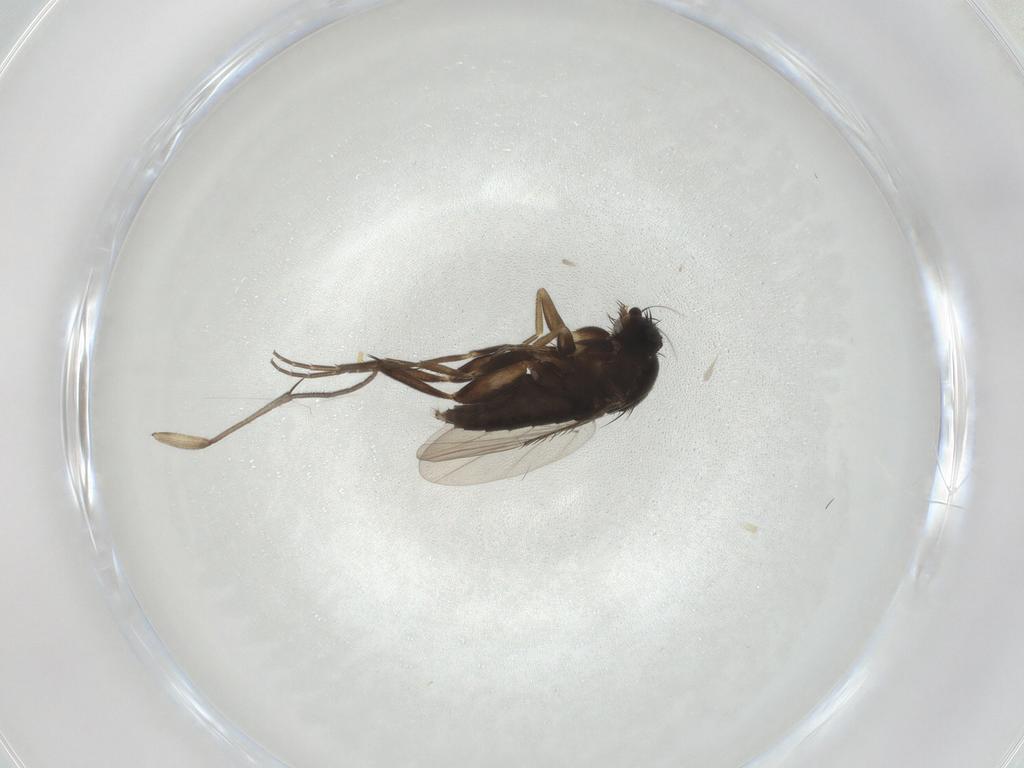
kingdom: Animalia
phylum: Arthropoda
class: Insecta
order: Diptera
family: Phoridae
